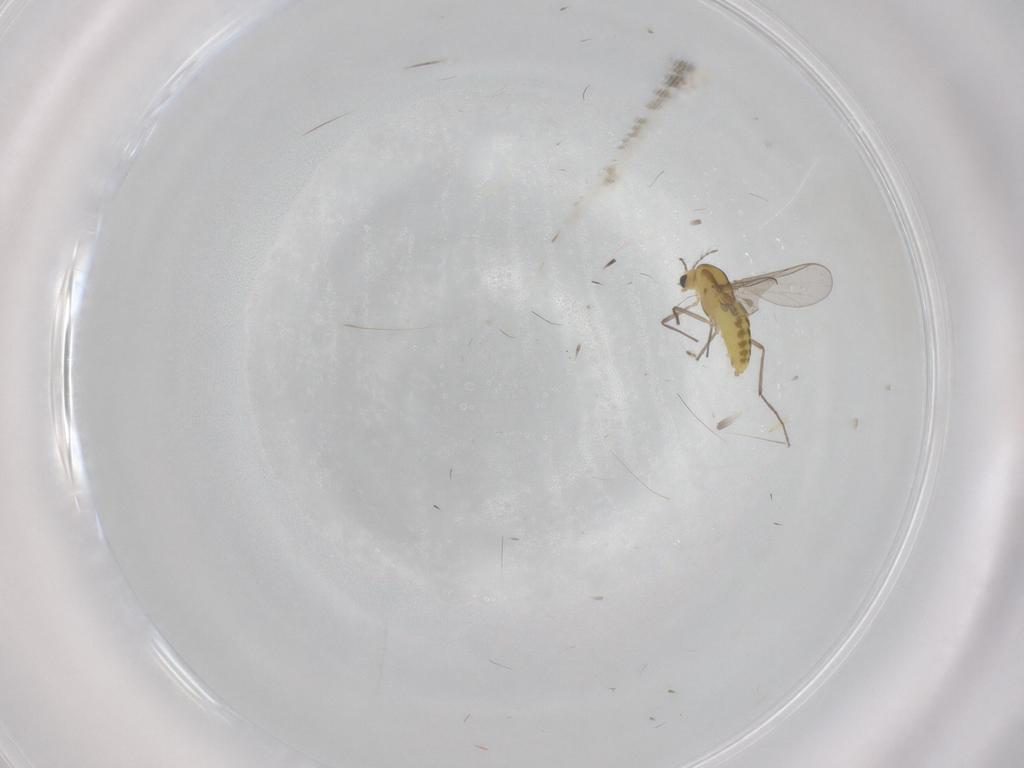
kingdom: Animalia
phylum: Arthropoda
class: Insecta
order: Diptera
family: Chironomidae
